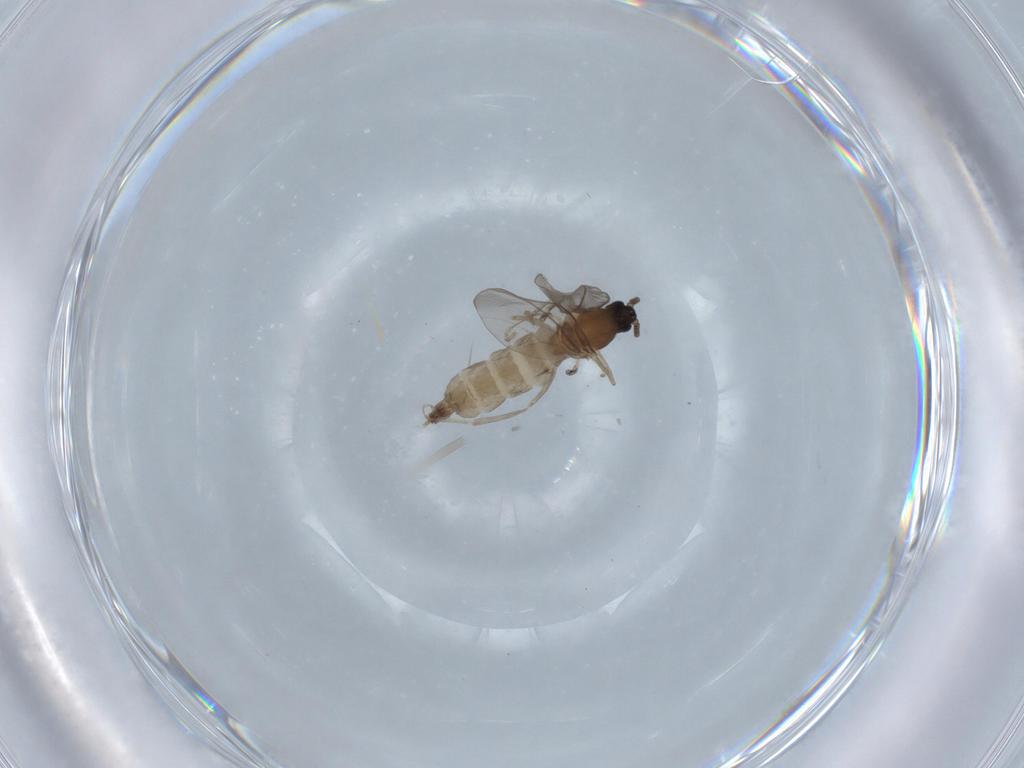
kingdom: Animalia
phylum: Arthropoda
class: Insecta
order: Diptera
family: Cecidomyiidae
